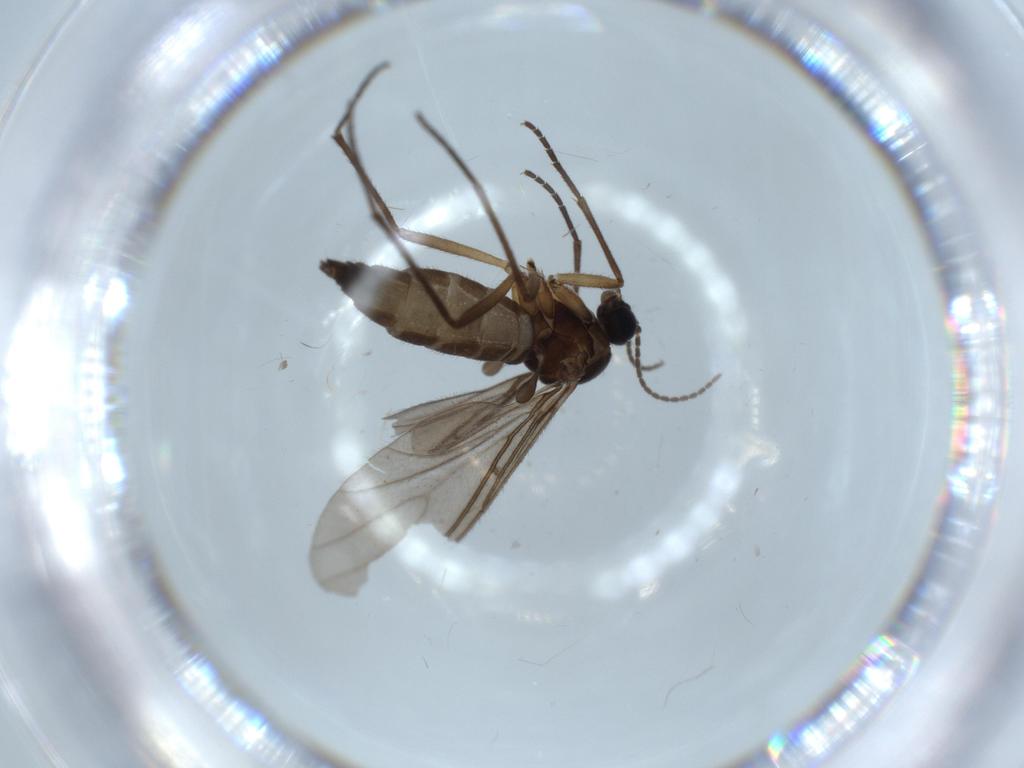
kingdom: Animalia
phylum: Arthropoda
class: Insecta
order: Diptera
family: Chironomidae
